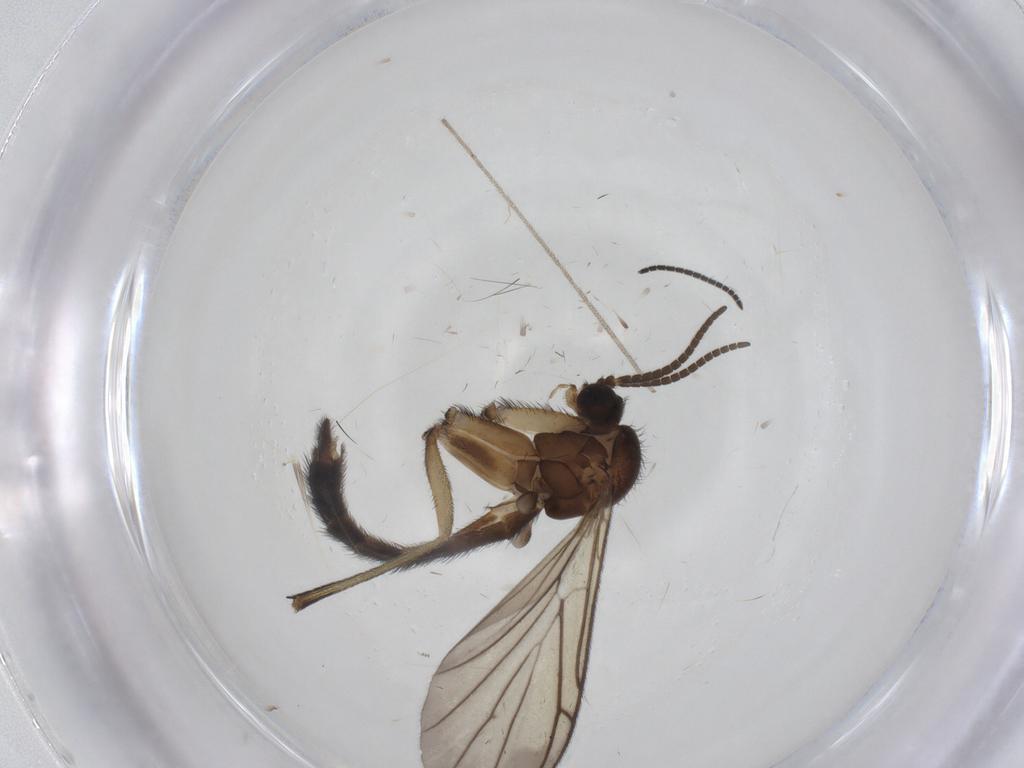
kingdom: Animalia
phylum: Arthropoda
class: Insecta
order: Diptera
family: Keroplatidae
